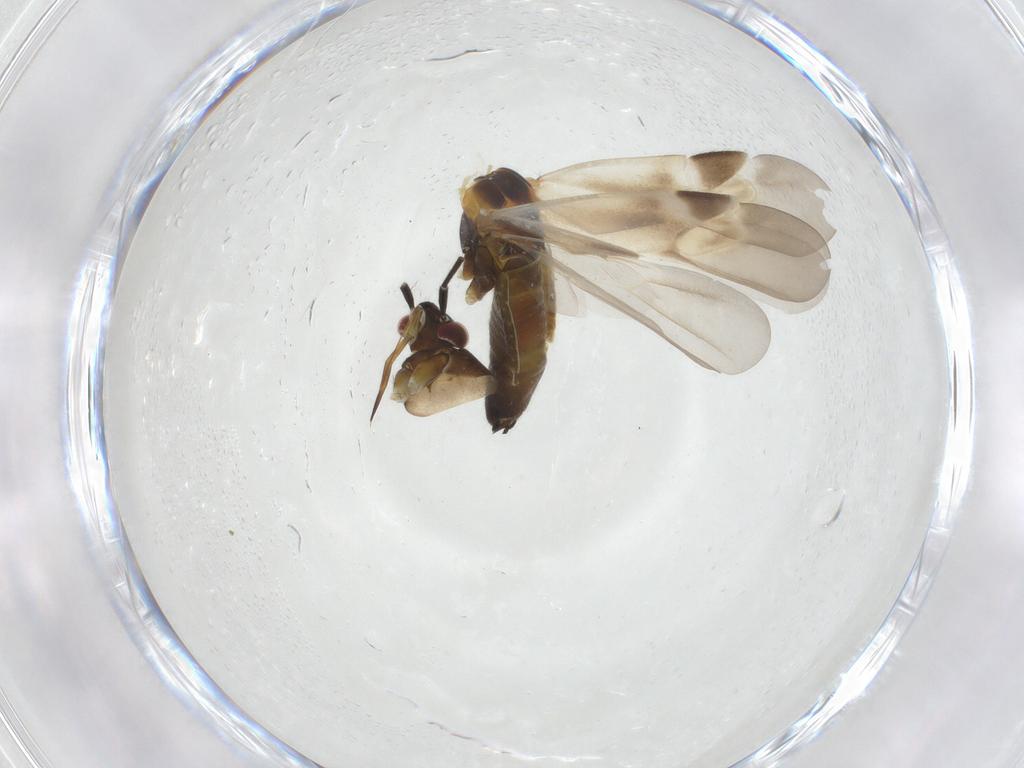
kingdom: Animalia
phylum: Arthropoda
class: Insecta
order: Hemiptera
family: Miridae
